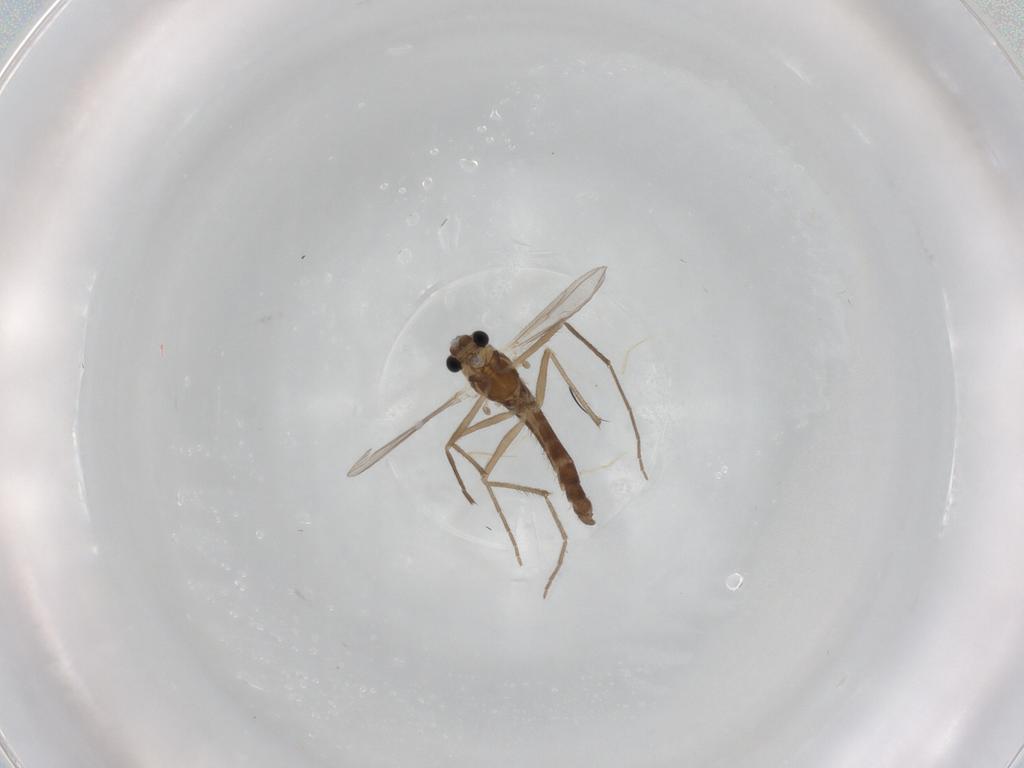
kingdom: Animalia
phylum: Arthropoda
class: Insecta
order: Diptera
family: Chironomidae
